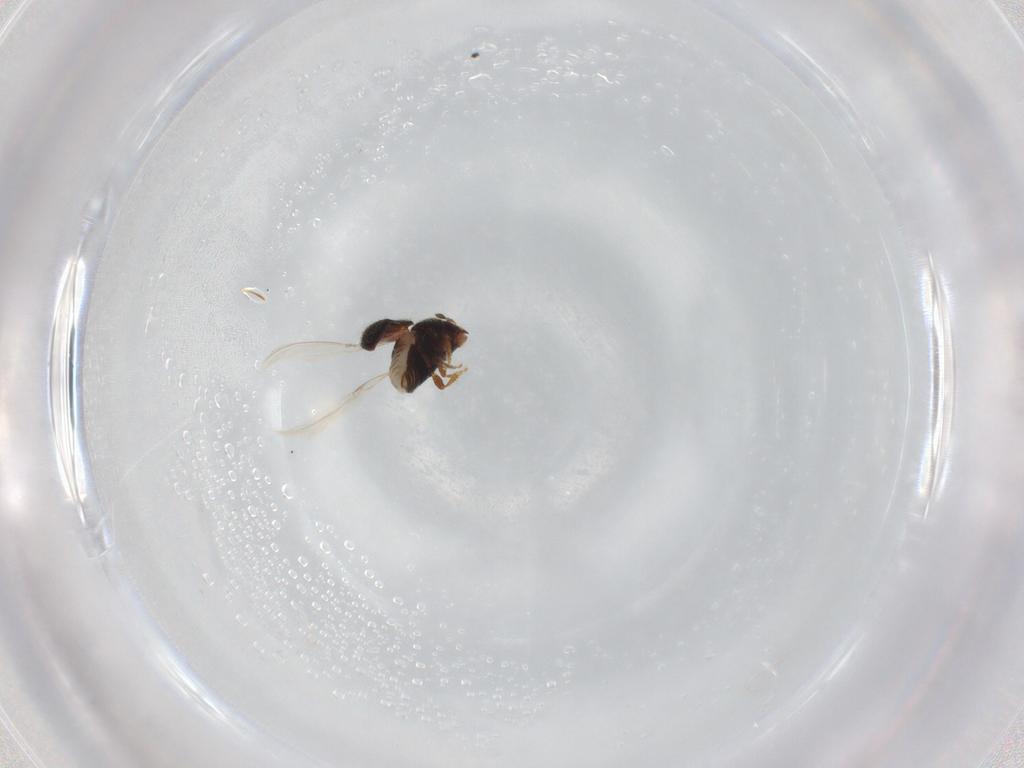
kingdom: Animalia
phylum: Arthropoda
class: Insecta
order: Coleoptera
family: Curculionidae
